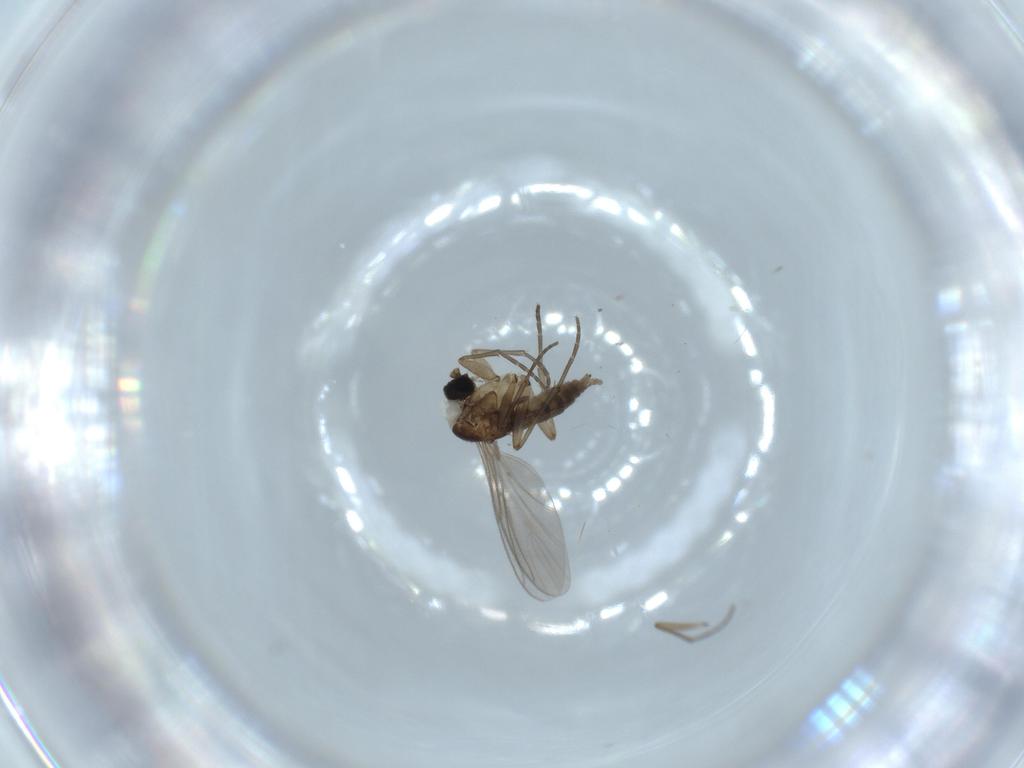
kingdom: Animalia
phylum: Arthropoda
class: Insecta
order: Diptera
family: Sciaridae
